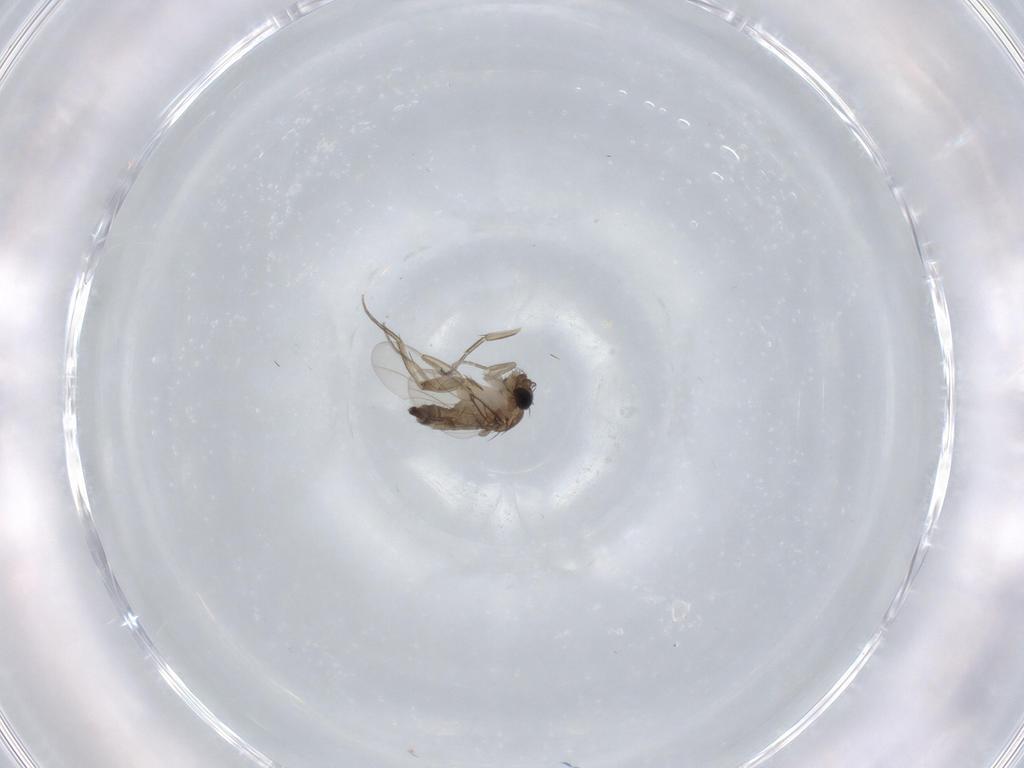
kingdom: Animalia
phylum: Arthropoda
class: Insecta
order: Diptera
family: Phoridae
